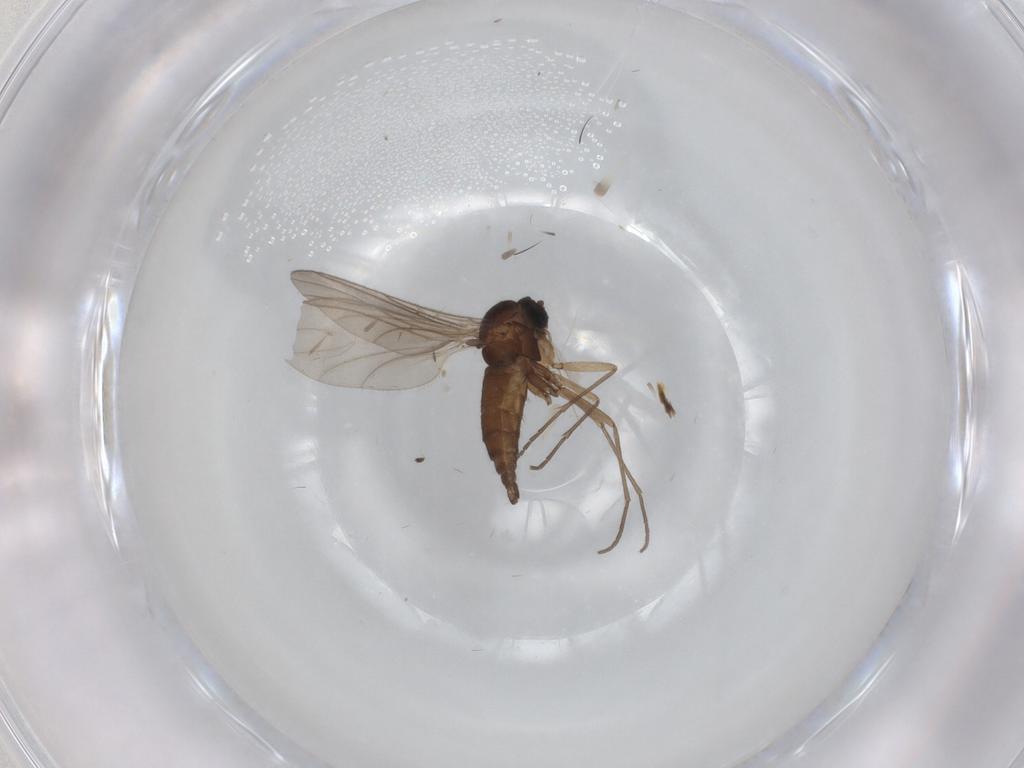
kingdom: Animalia
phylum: Arthropoda
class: Insecta
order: Diptera
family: Sciaridae
